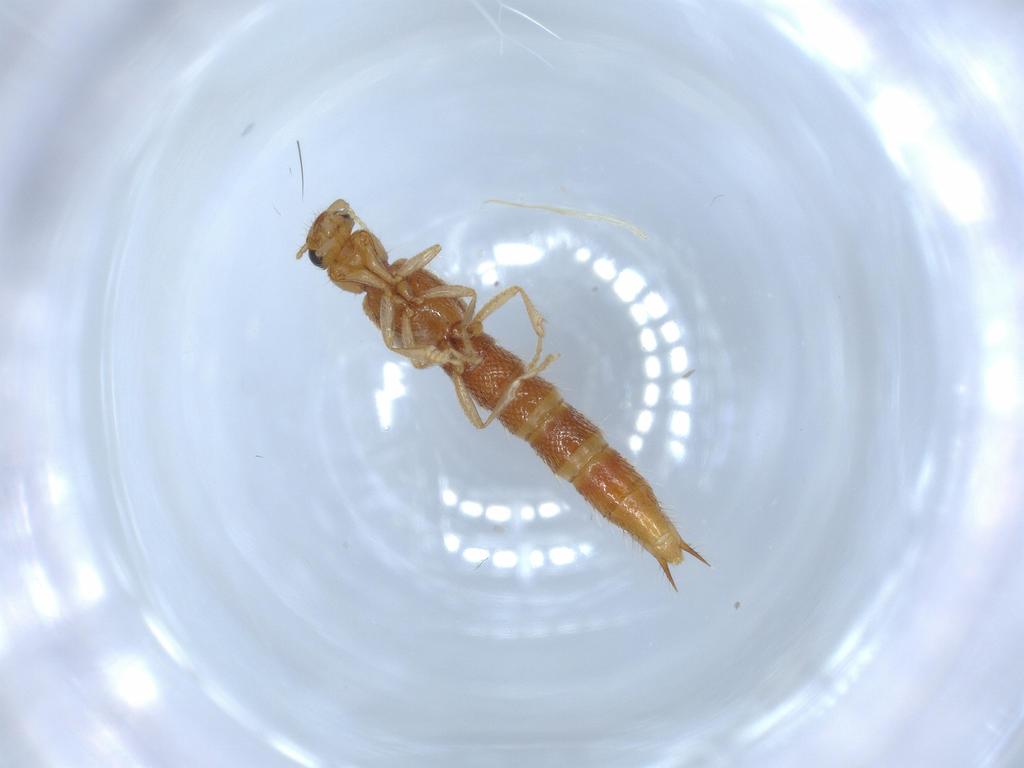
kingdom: Animalia
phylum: Arthropoda
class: Insecta
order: Coleoptera
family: Staphylinidae
